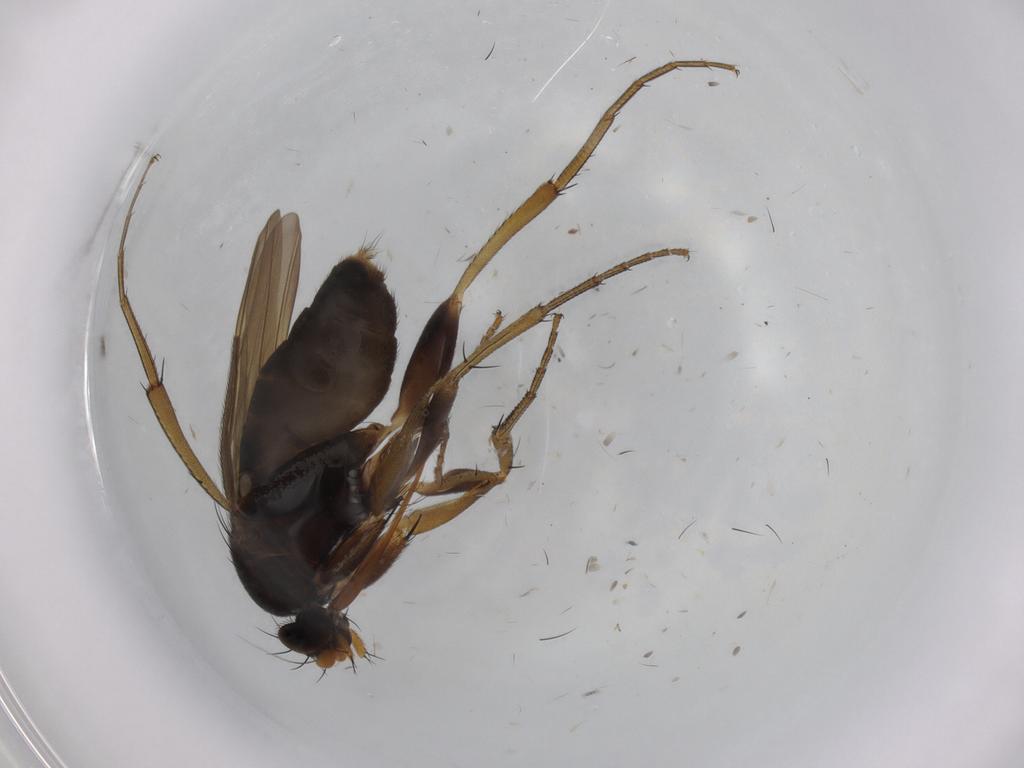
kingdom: Animalia
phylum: Arthropoda
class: Insecta
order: Diptera
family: Phoridae
